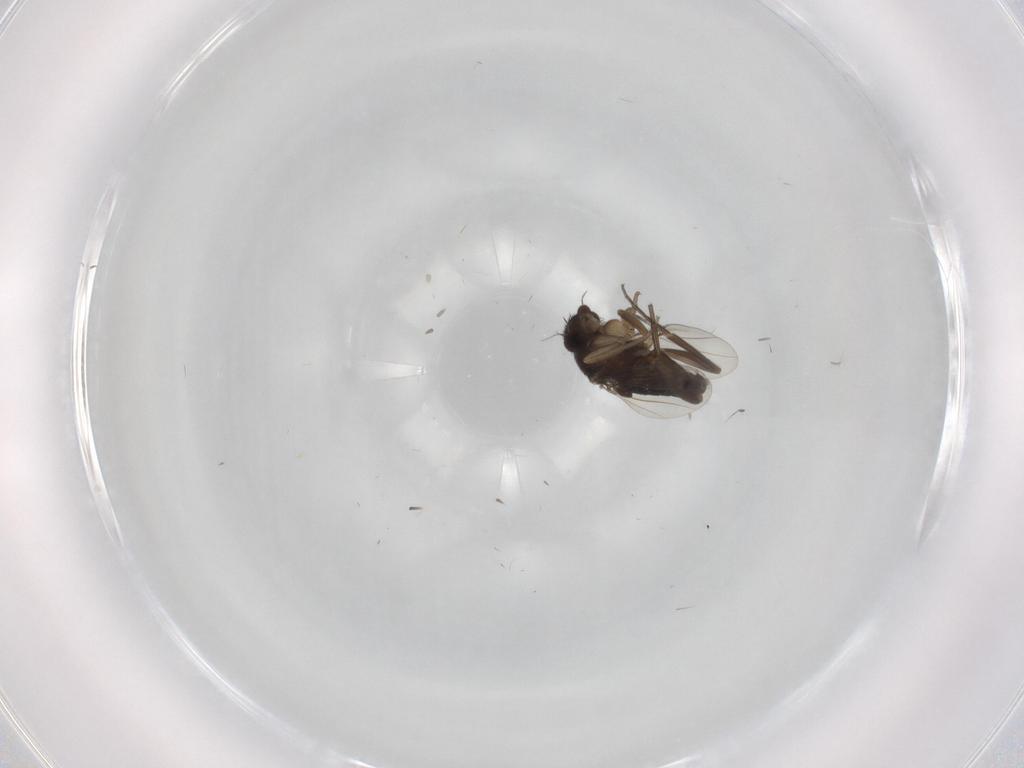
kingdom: Animalia
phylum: Arthropoda
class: Insecta
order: Diptera
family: Phoridae
